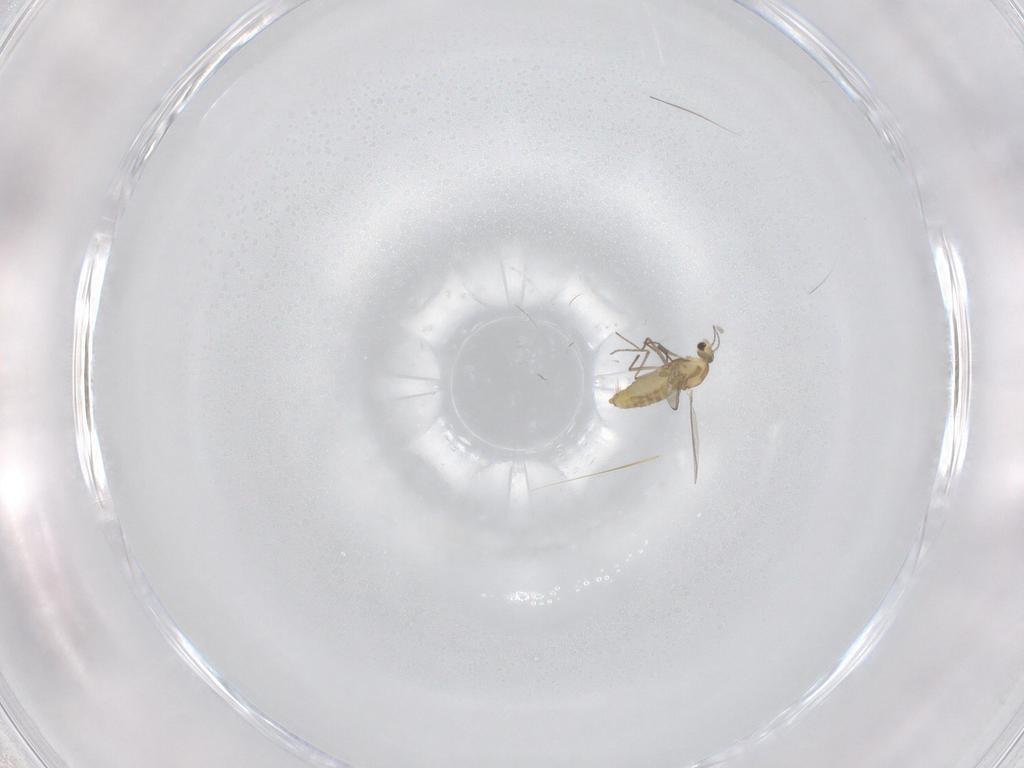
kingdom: Animalia
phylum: Arthropoda
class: Insecta
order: Diptera
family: Chironomidae
